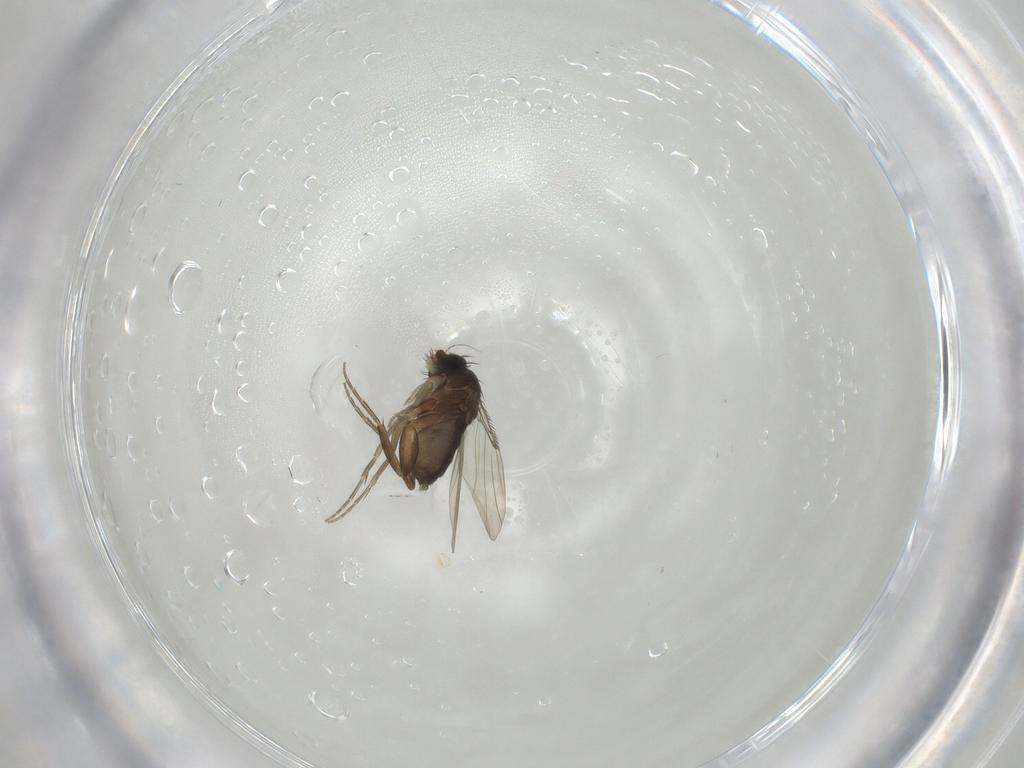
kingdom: Animalia
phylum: Arthropoda
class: Insecta
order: Diptera
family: Phoridae
